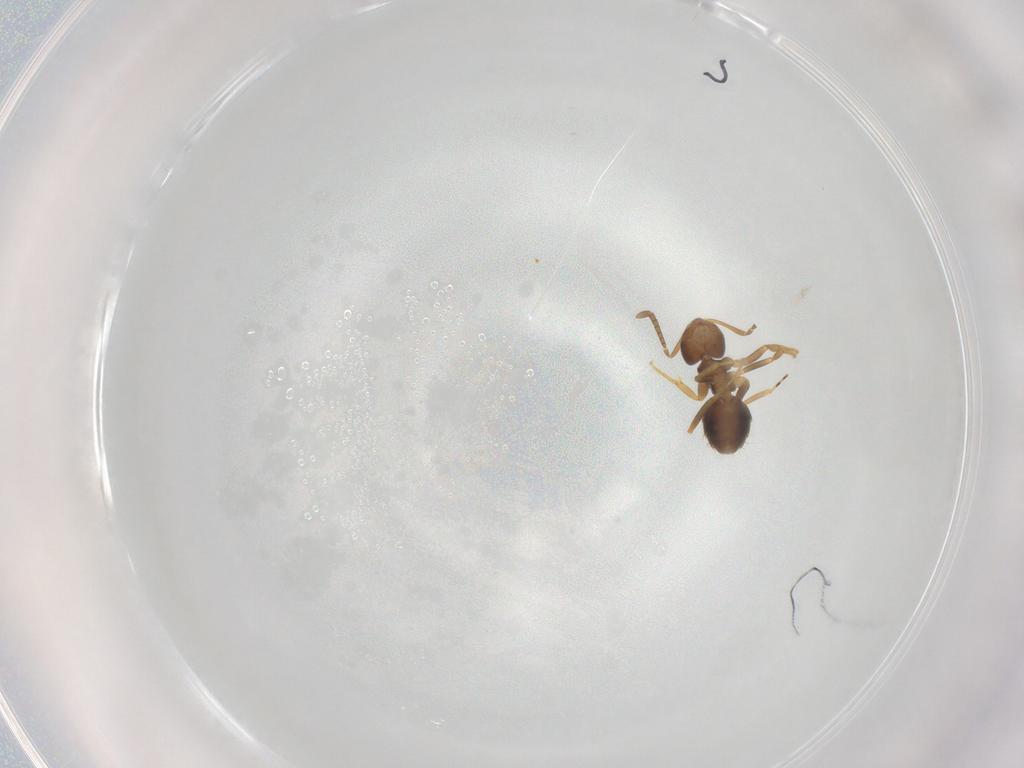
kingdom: Animalia
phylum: Arthropoda
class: Insecta
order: Hymenoptera
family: Formicidae
